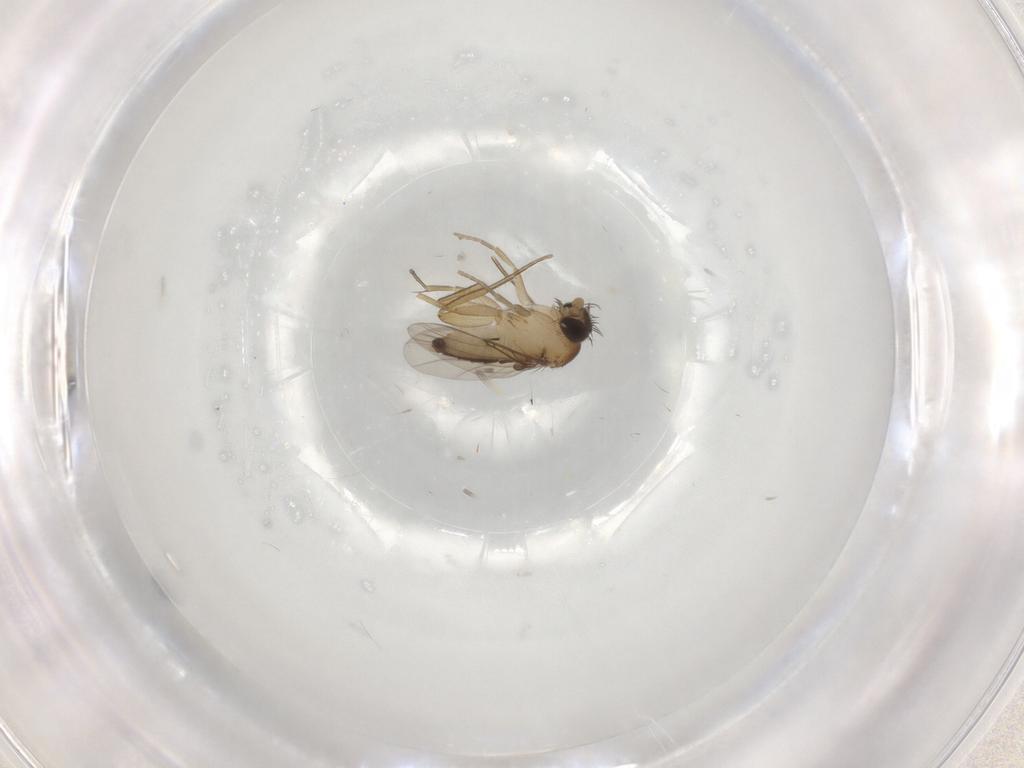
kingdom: Animalia
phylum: Arthropoda
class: Insecta
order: Diptera
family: Phoridae
